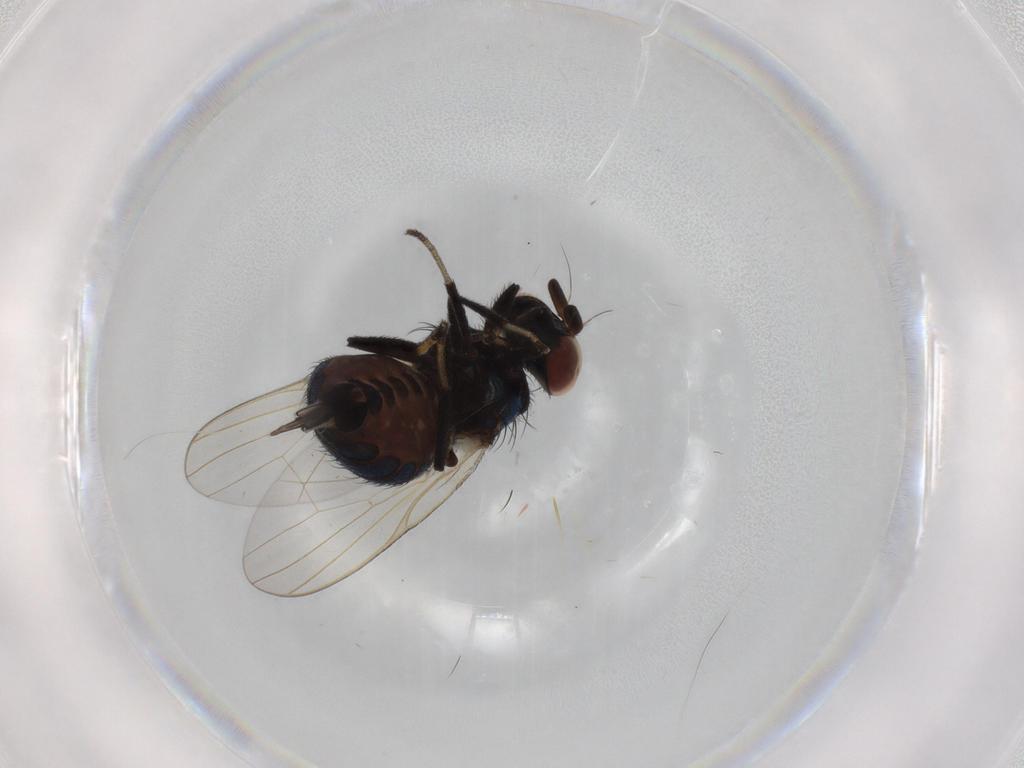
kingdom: Animalia
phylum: Arthropoda
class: Insecta
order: Diptera
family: Lonchaeidae
